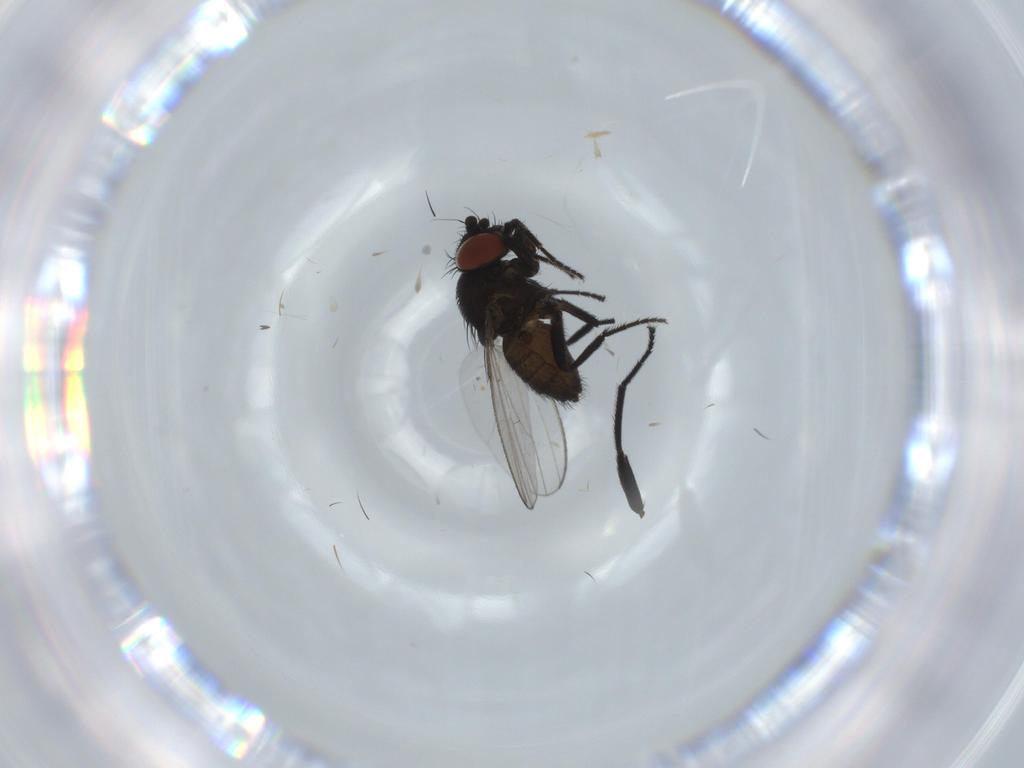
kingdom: Animalia
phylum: Arthropoda
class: Insecta
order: Diptera
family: Milichiidae
